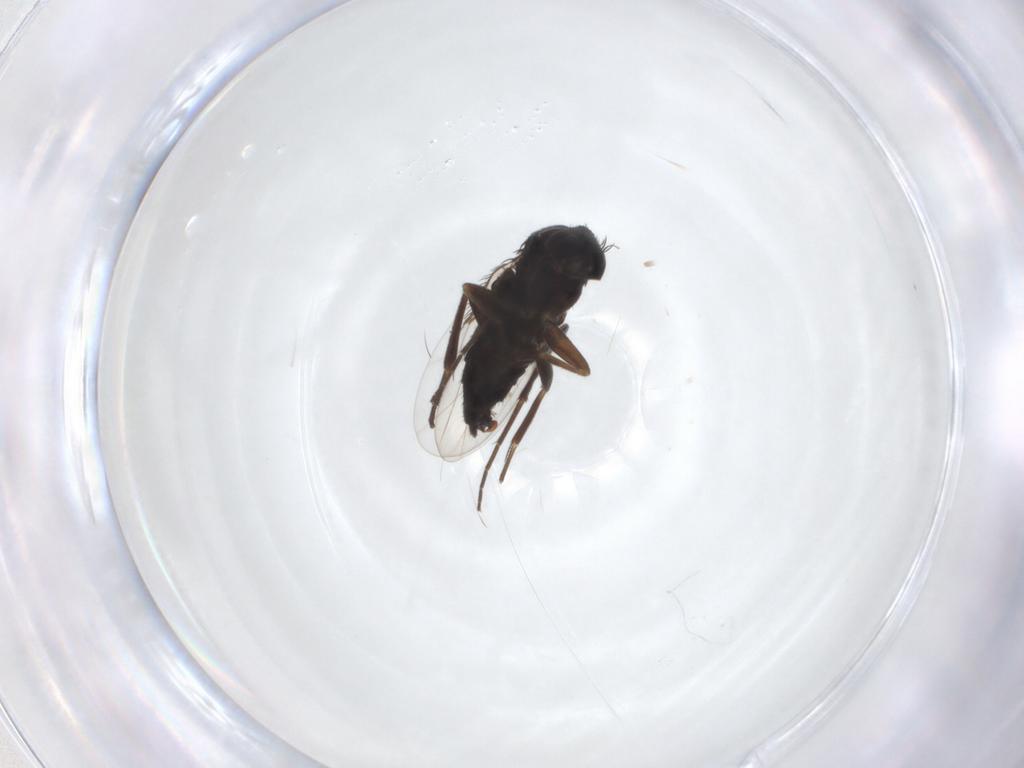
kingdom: Animalia
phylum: Arthropoda
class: Insecta
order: Diptera
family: Phoridae
